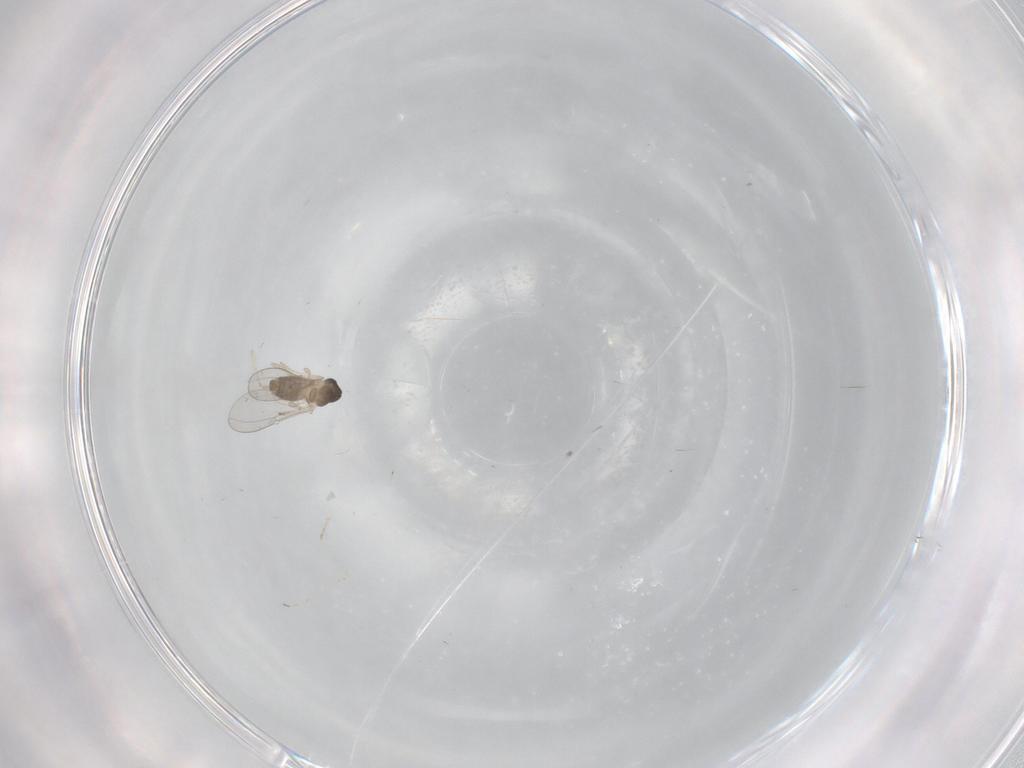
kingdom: Animalia
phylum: Arthropoda
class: Insecta
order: Diptera
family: Cecidomyiidae
